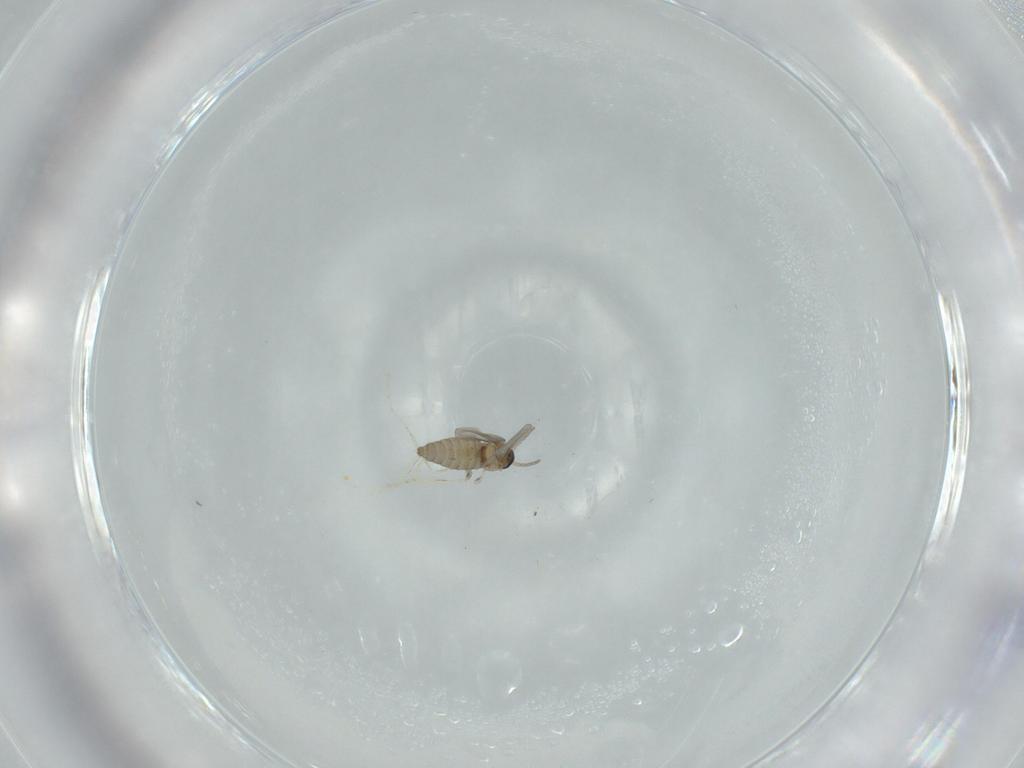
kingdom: Animalia
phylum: Arthropoda
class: Insecta
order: Diptera
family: Cecidomyiidae
